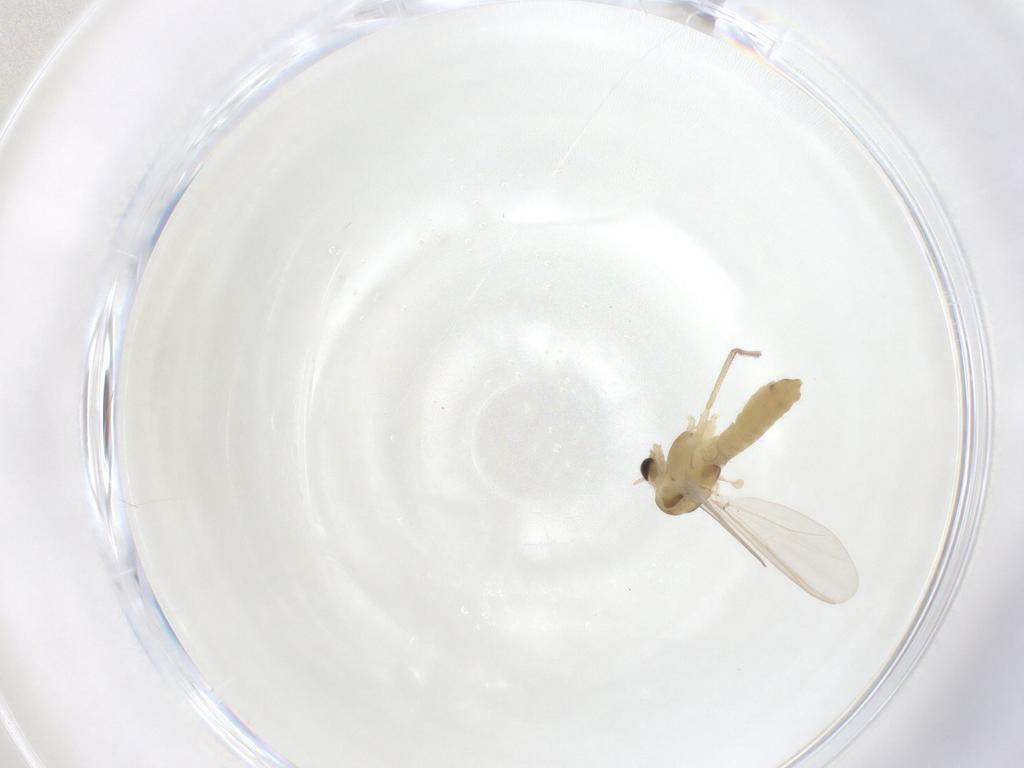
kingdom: Animalia
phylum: Arthropoda
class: Insecta
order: Diptera
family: Chironomidae
